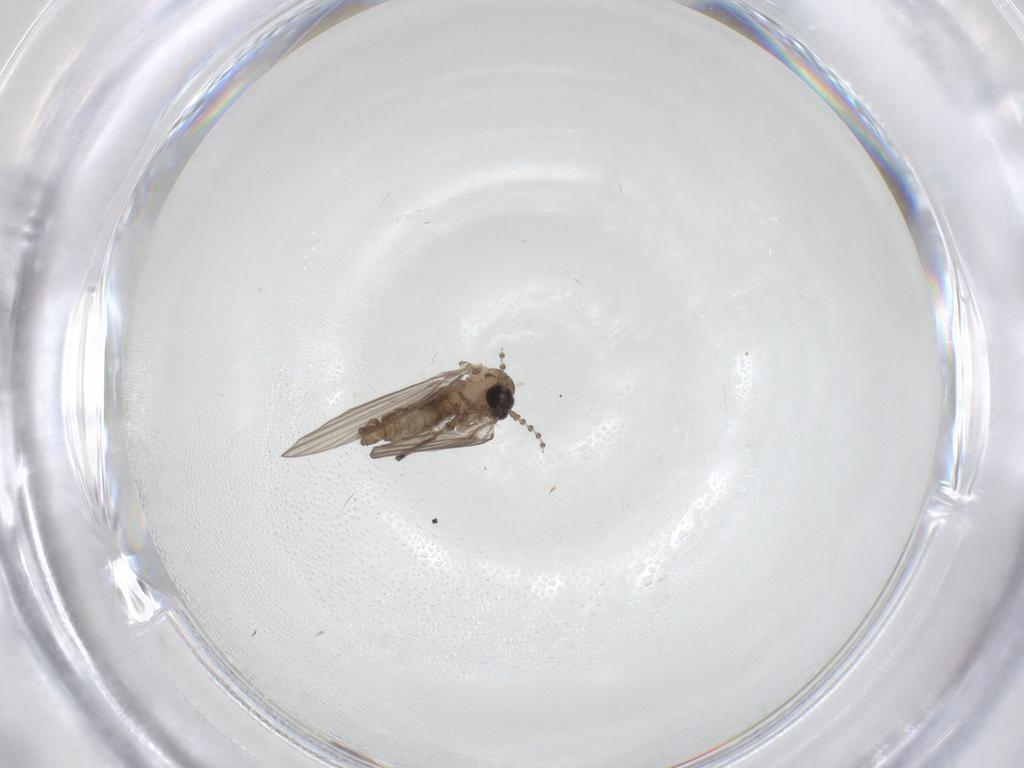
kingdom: Animalia
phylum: Arthropoda
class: Insecta
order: Diptera
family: Psychodidae
